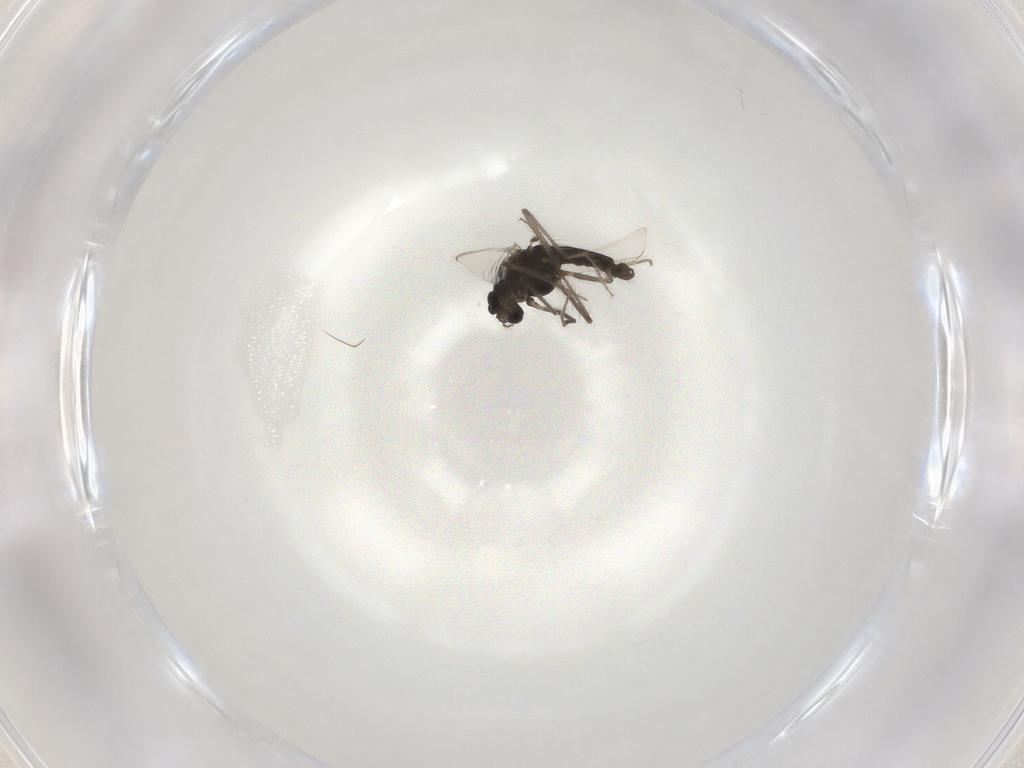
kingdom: Animalia
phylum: Arthropoda
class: Insecta
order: Diptera
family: Chironomidae
